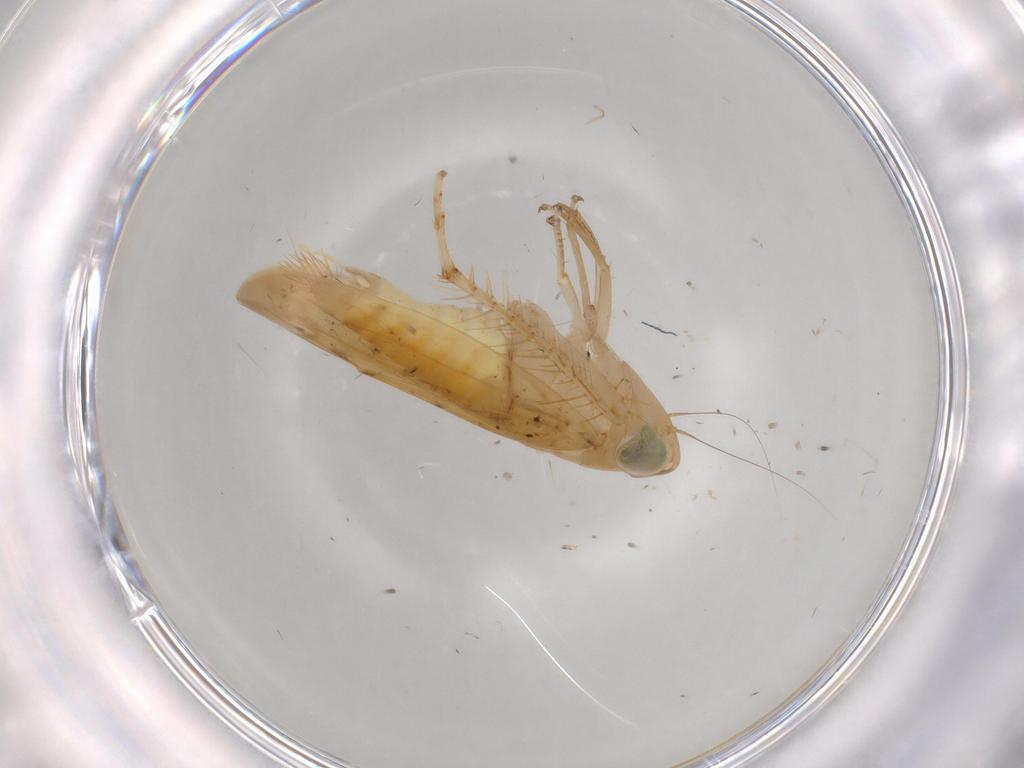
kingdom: Animalia
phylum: Arthropoda
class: Insecta
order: Hemiptera
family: Cicadellidae
